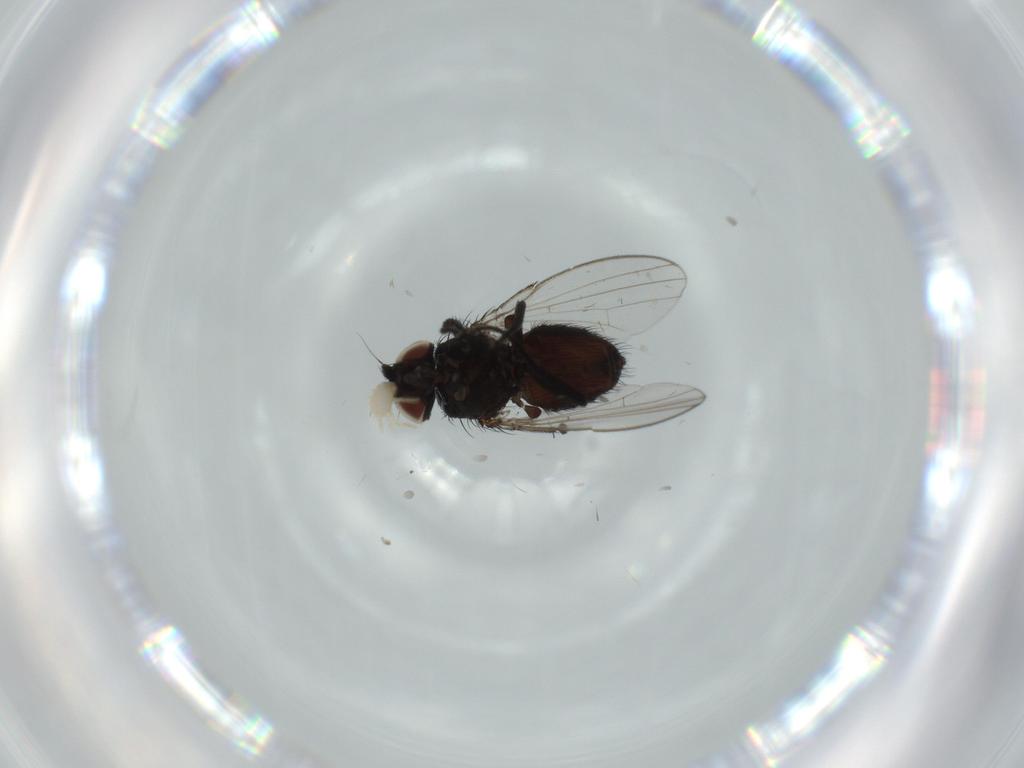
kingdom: Animalia
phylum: Arthropoda
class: Insecta
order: Diptera
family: Milichiidae
